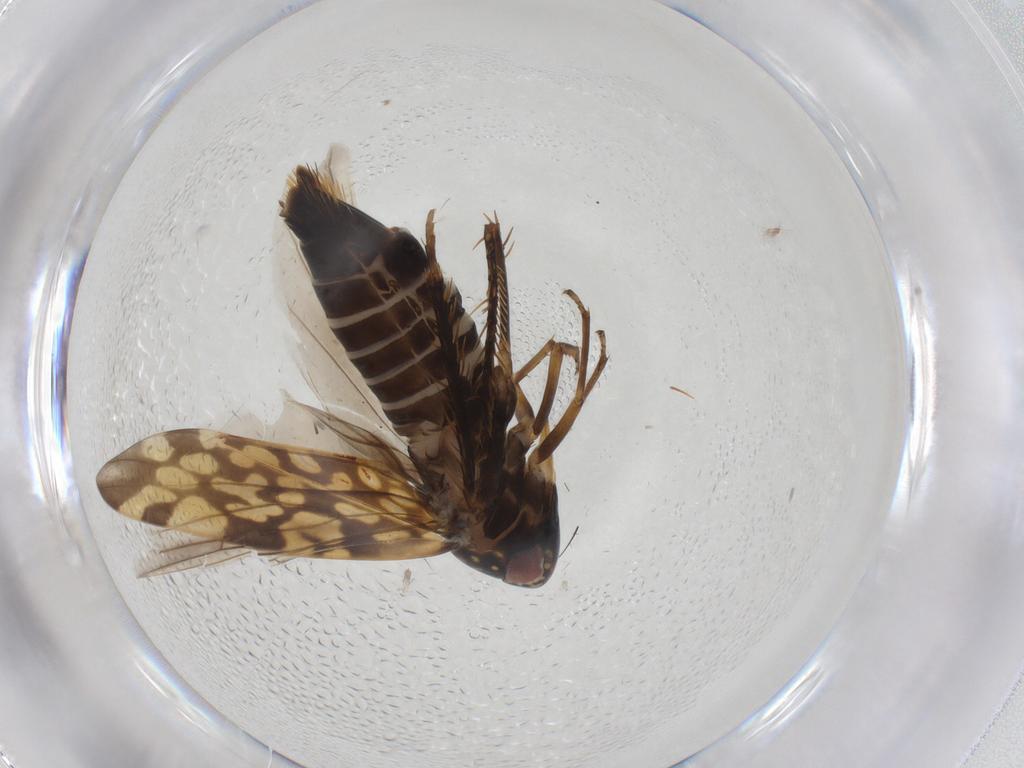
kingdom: Animalia
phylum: Arthropoda
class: Insecta
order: Hemiptera
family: Cicadellidae
